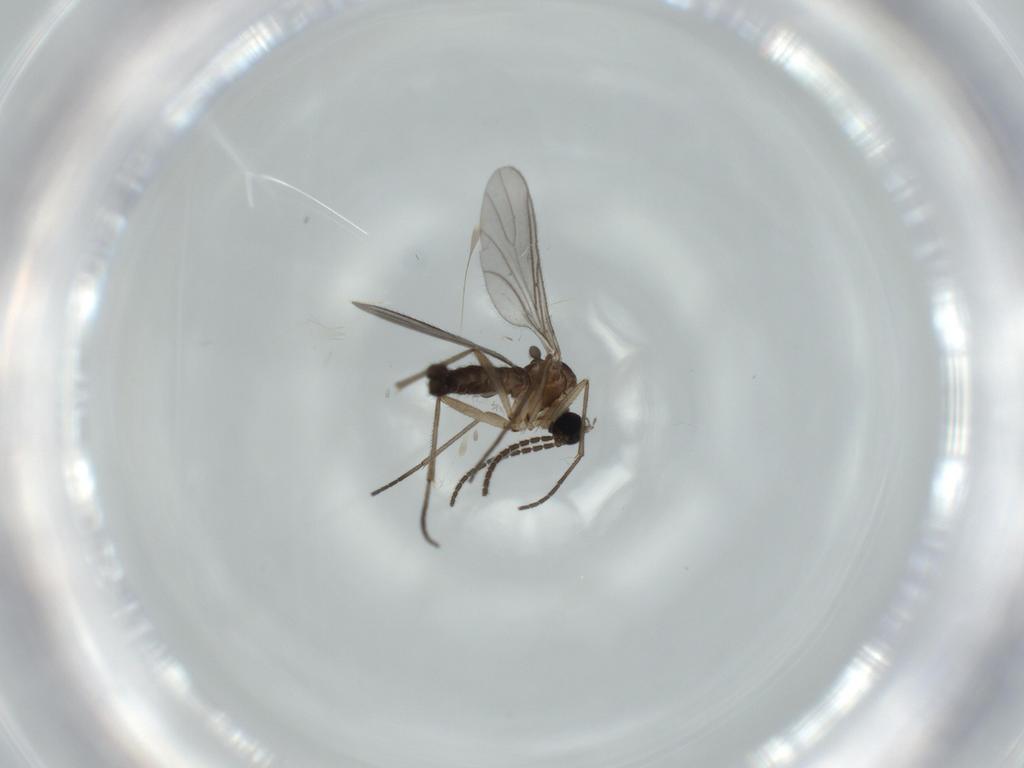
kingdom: Animalia
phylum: Arthropoda
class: Insecta
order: Diptera
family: Sciaridae
